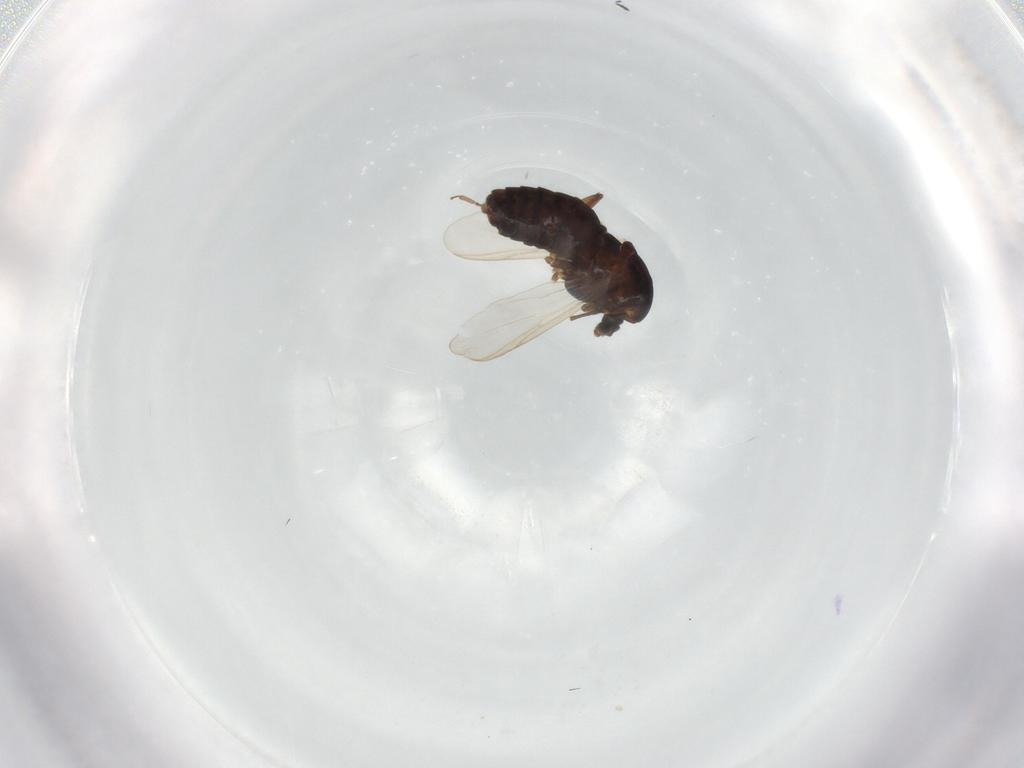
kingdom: Animalia
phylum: Arthropoda
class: Insecta
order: Diptera
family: Chironomidae
